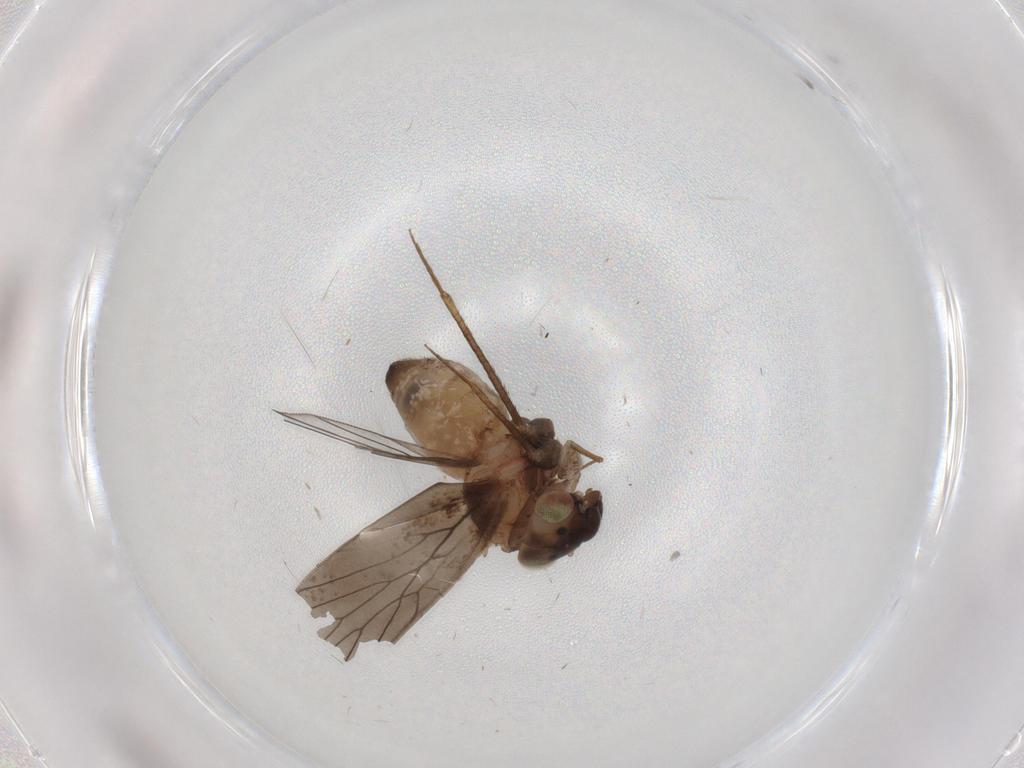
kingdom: Animalia
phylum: Arthropoda
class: Insecta
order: Psocodea
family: Lepidopsocidae
